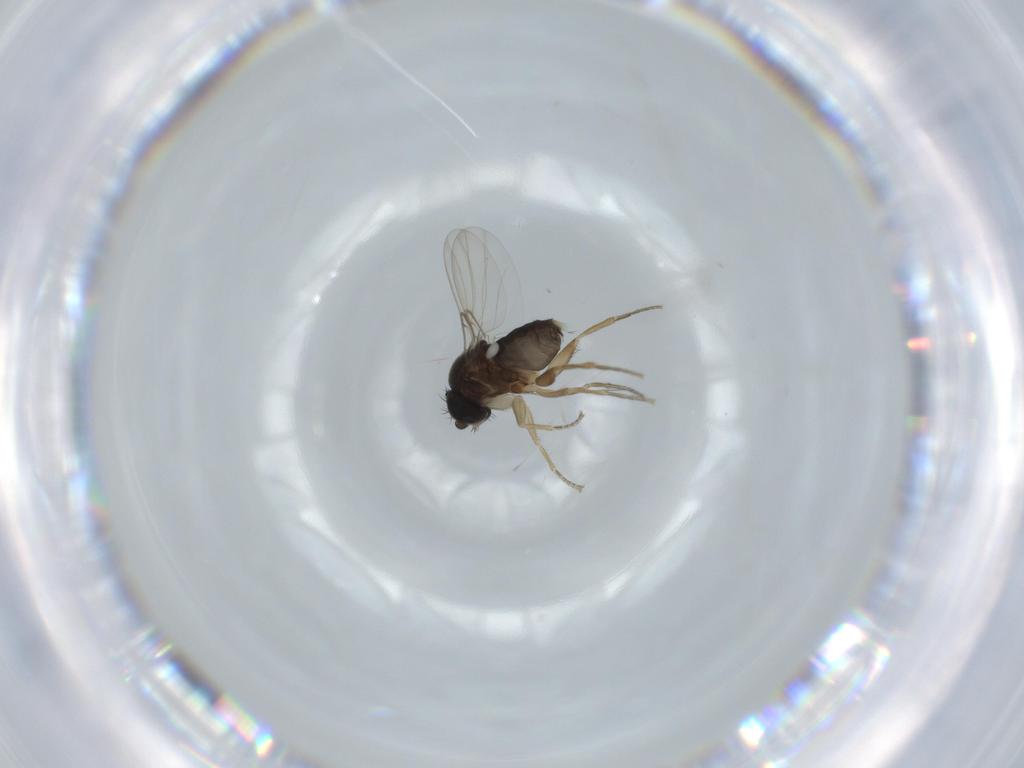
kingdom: Animalia
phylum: Arthropoda
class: Insecta
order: Diptera
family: Phoridae
